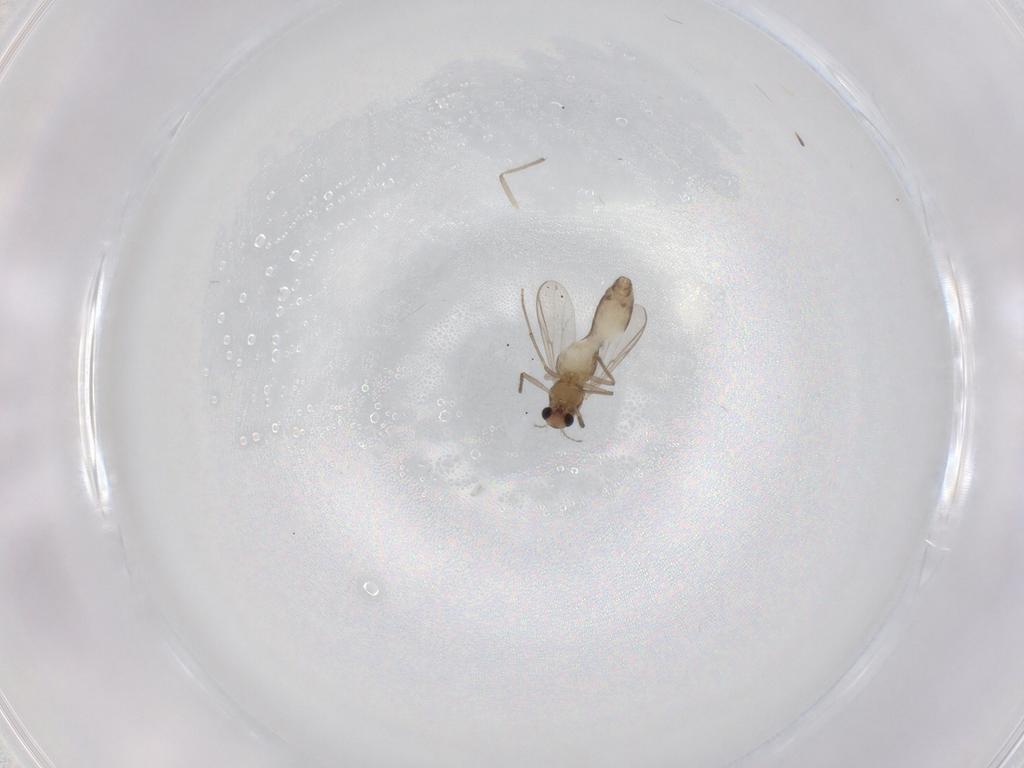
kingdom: Animalia
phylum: Arthropoda
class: Insecta
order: Diptera
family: Chironomidae
